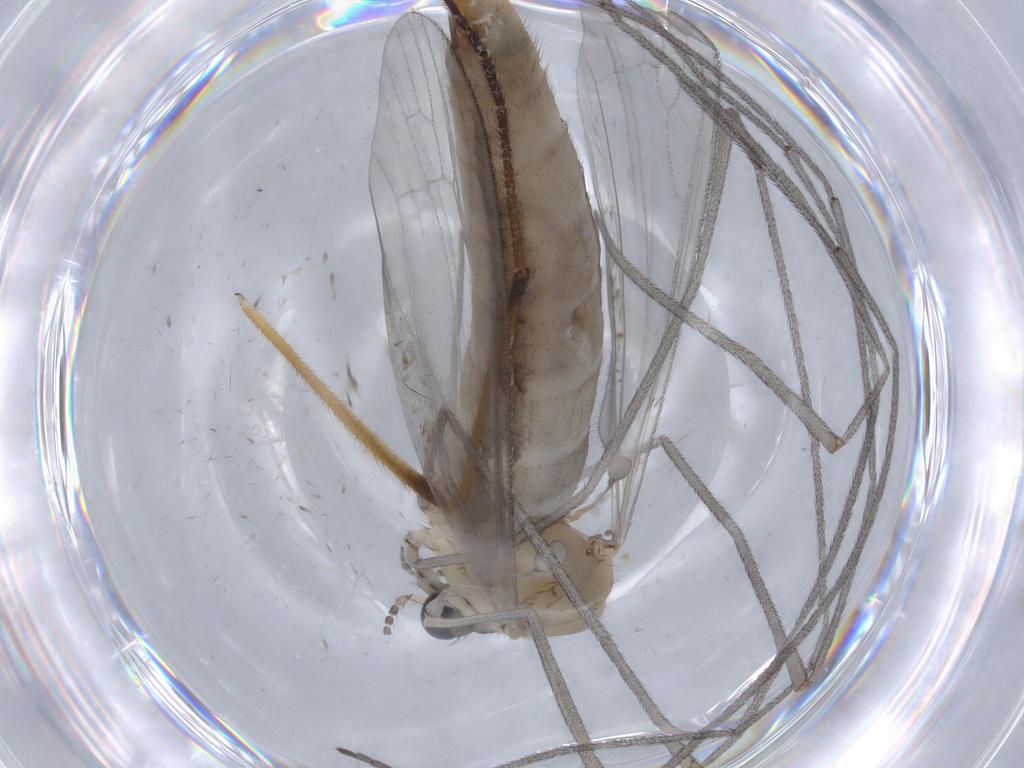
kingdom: Animalia
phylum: Arthropoda
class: Insecta
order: Diptera
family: Limoniidae
